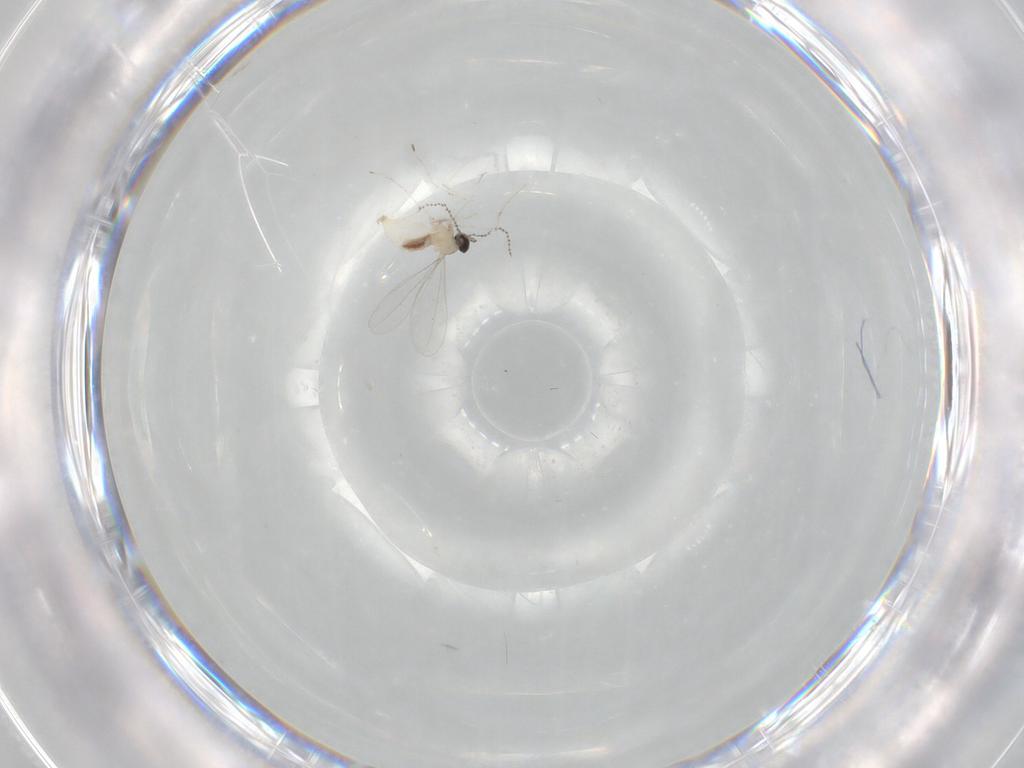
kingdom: Animalia
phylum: Arthropoda
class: Insecta
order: Diptera
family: Cecidomyiidae
